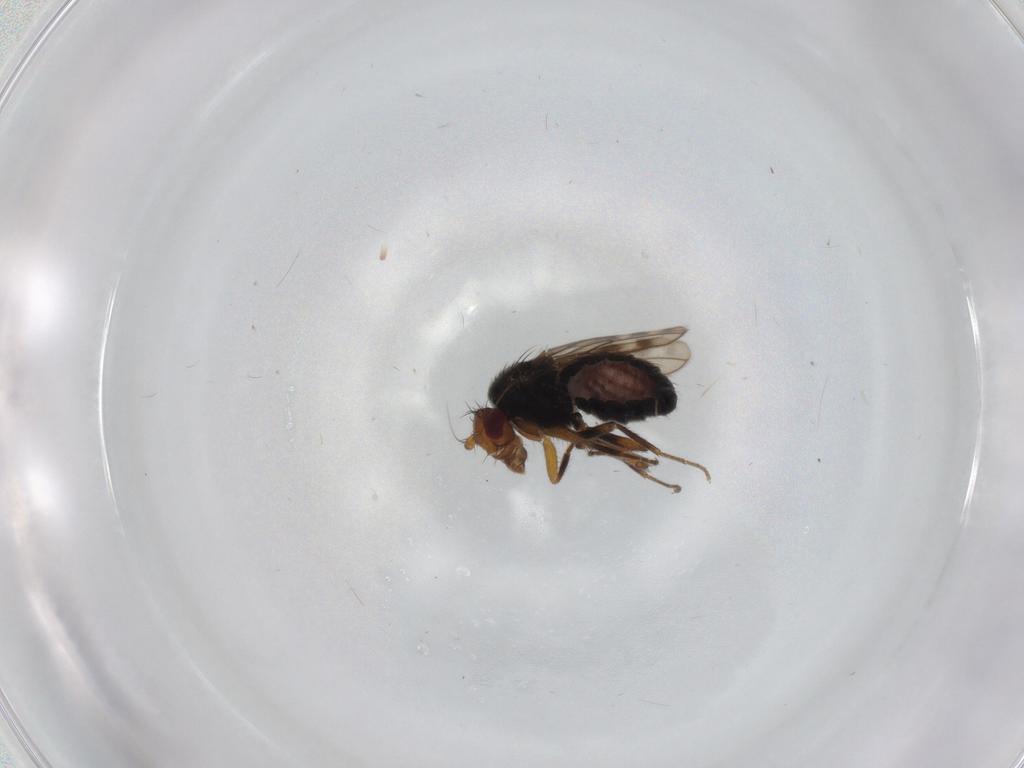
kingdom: Animalia
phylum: Arthropoda
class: Insecta
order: Diptera
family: Sphaeroceridae
